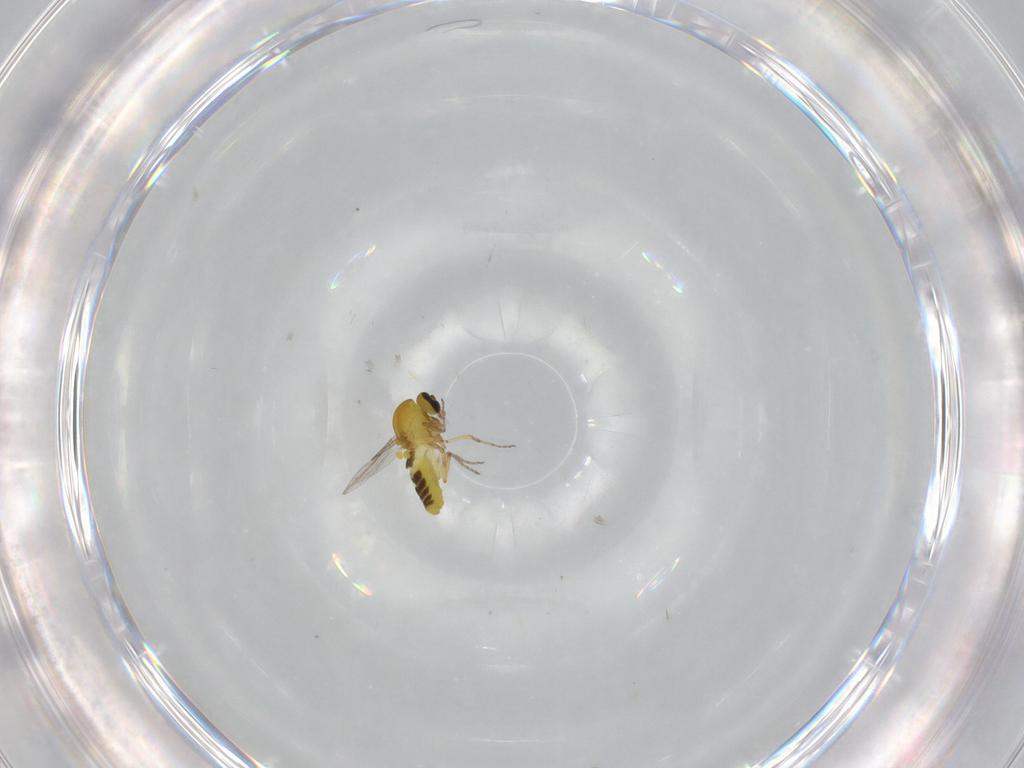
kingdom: Animalia
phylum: Arthropoda
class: Insecta
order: Diptera
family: Ceratopogonidae
